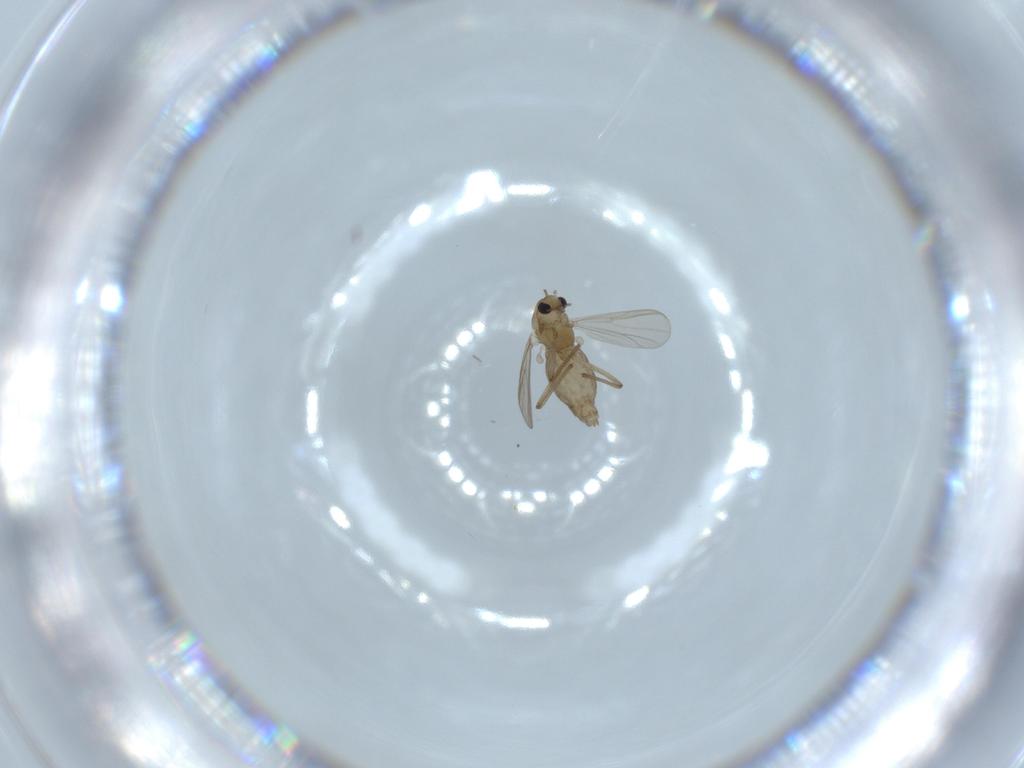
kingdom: Animalia
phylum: Arthropoda
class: Insecta
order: Diptera
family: Chironomidae
